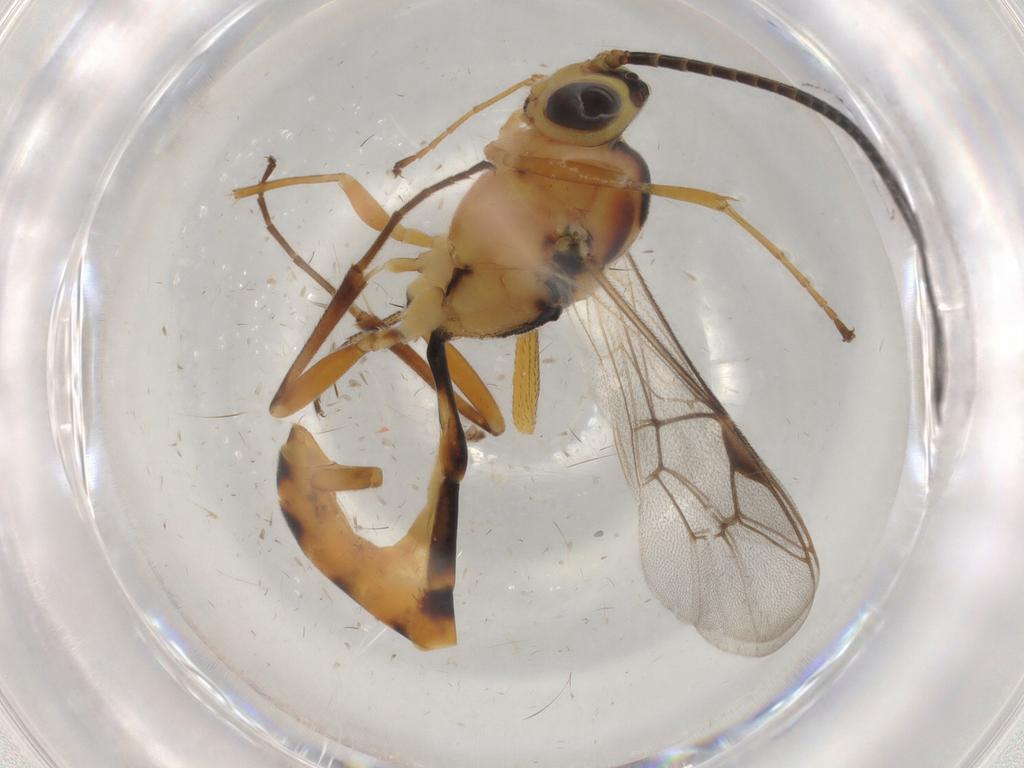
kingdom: Animalia
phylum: Arthropoda
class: Insecta
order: Hymenoptera
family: Ichneumonidae
